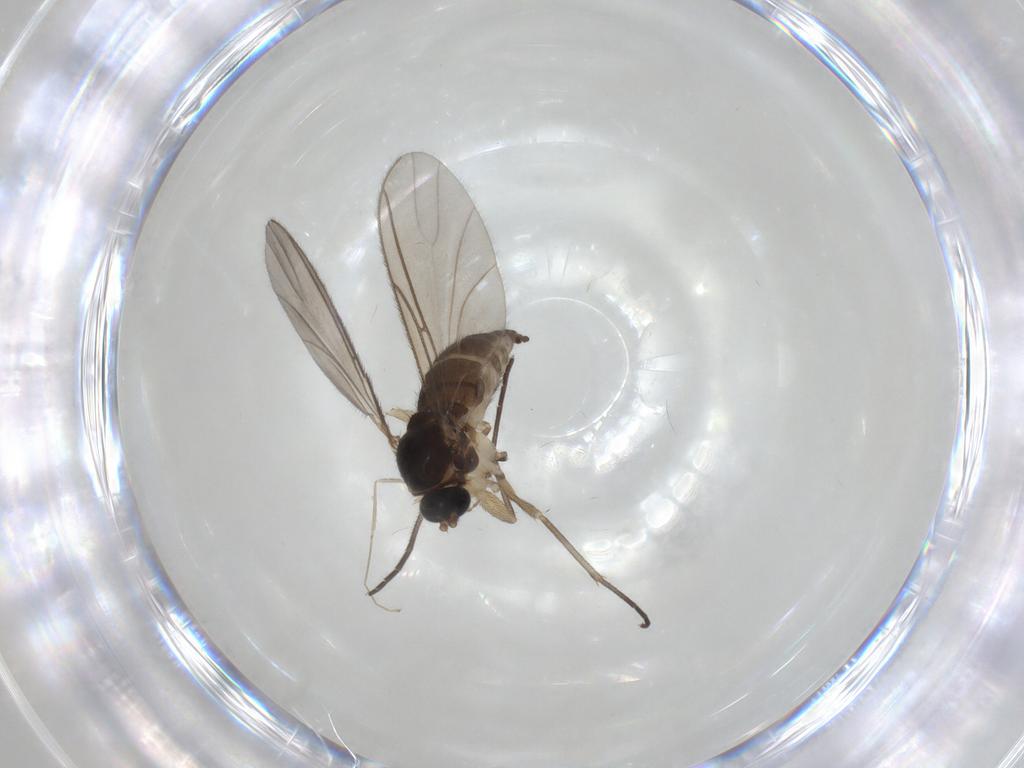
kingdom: Animalia
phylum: Arthropoda
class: Insecta
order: Diptera
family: Sciaridae
